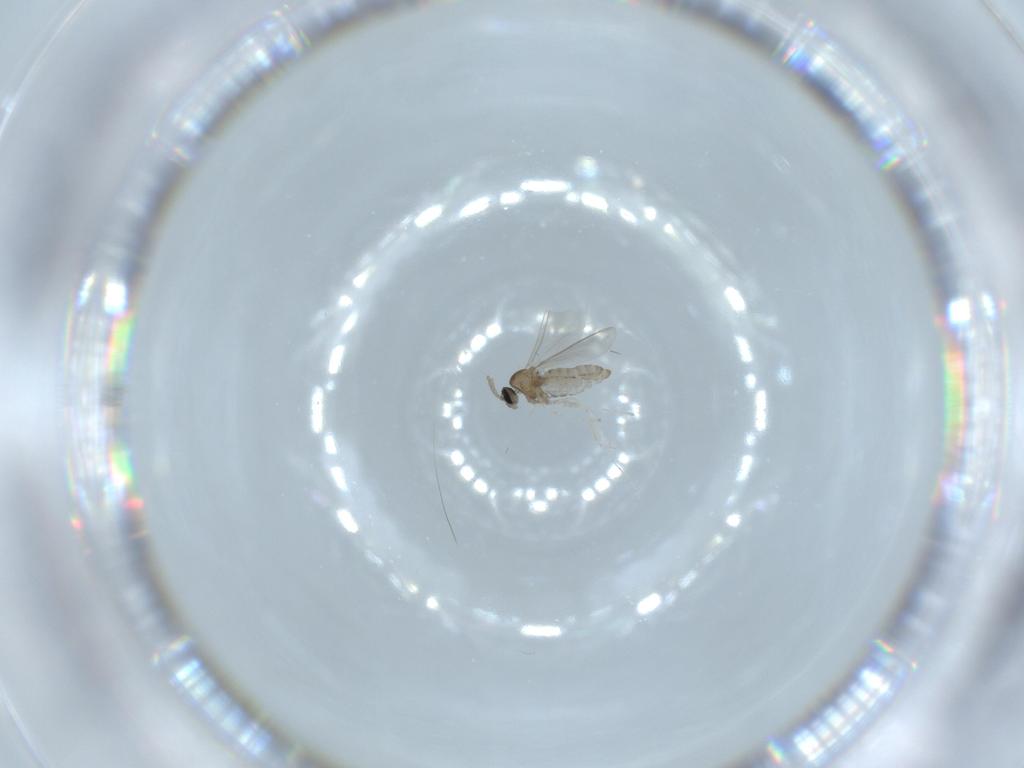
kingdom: Animalia
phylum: Arthropoda
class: Insecta
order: Diptera
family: Cecidomyiidae
